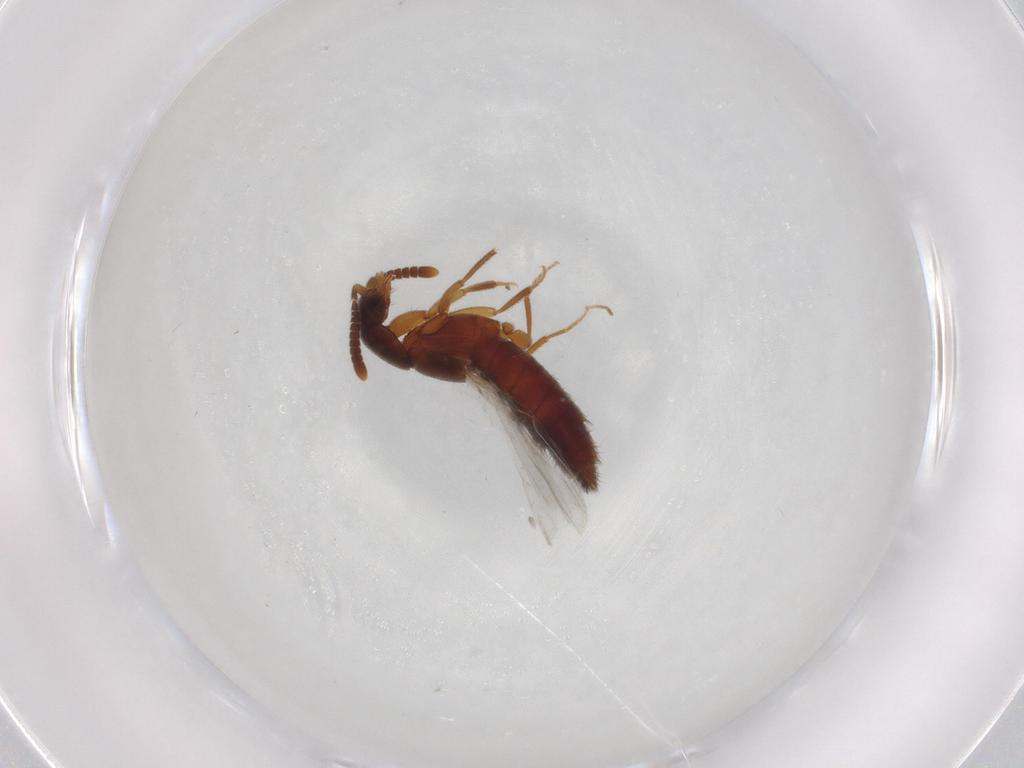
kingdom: Animalia
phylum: Arthropoda
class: Insecta
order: Coleoptera
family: Staphylinidae
